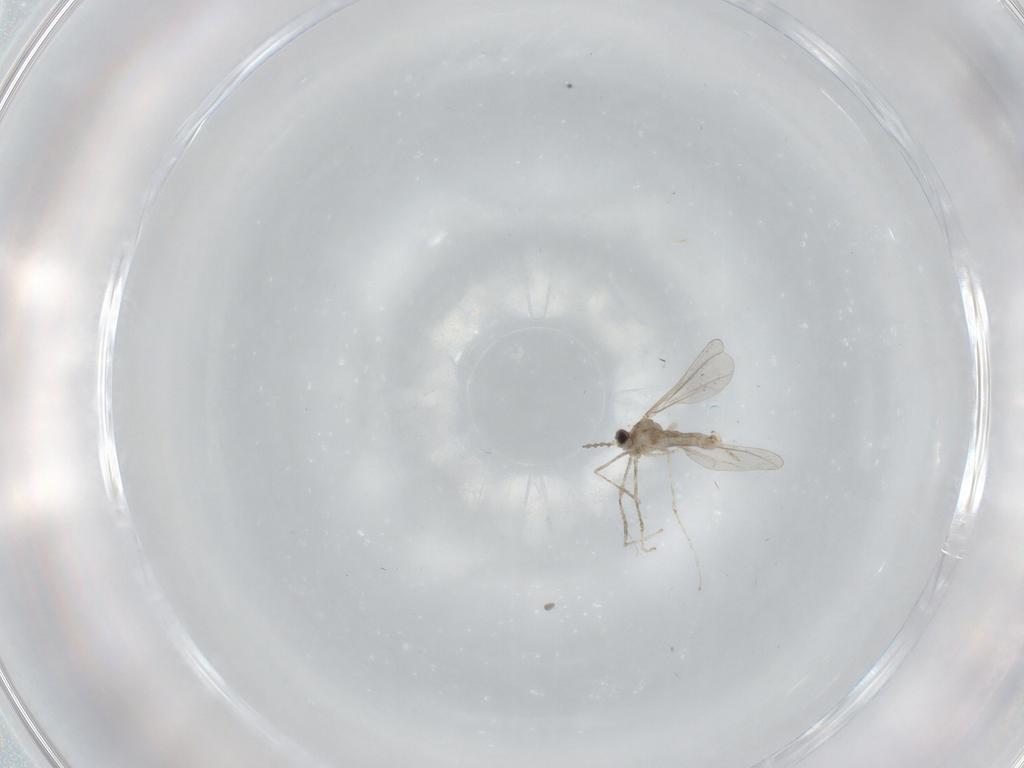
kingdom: Animalia
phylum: Arthropoda
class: Insecta
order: Diptera
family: Cecidomyiidae
